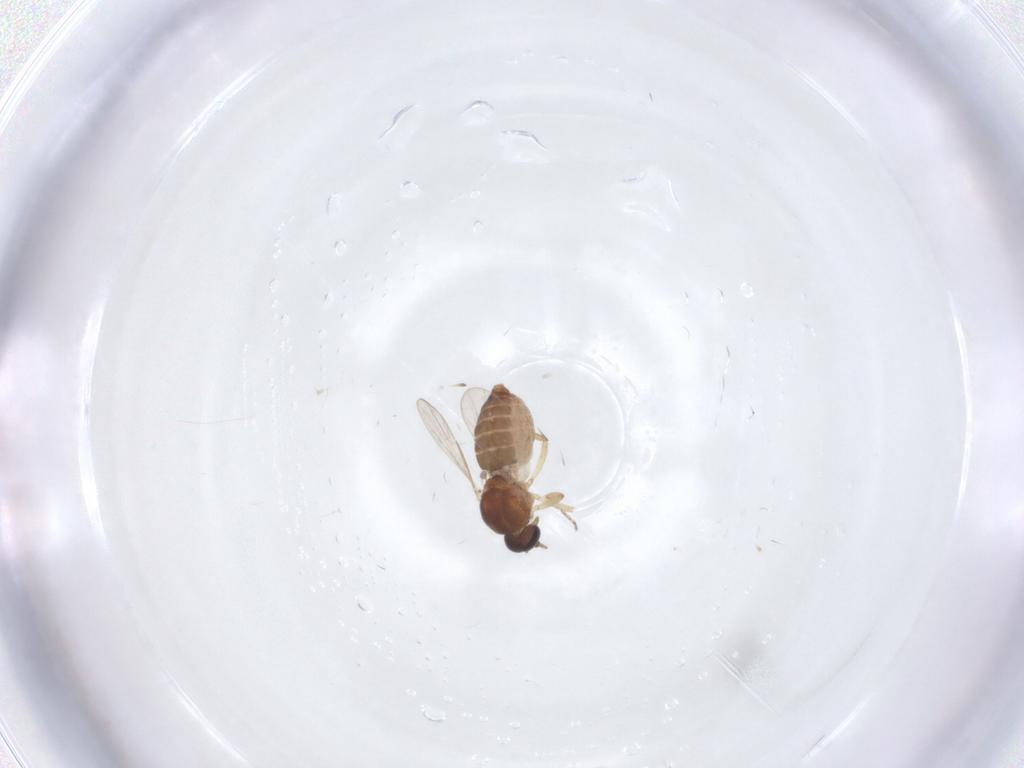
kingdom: Animalia
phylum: Arthropoda
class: Insecta
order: Diptera
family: Ceratopogonidae
